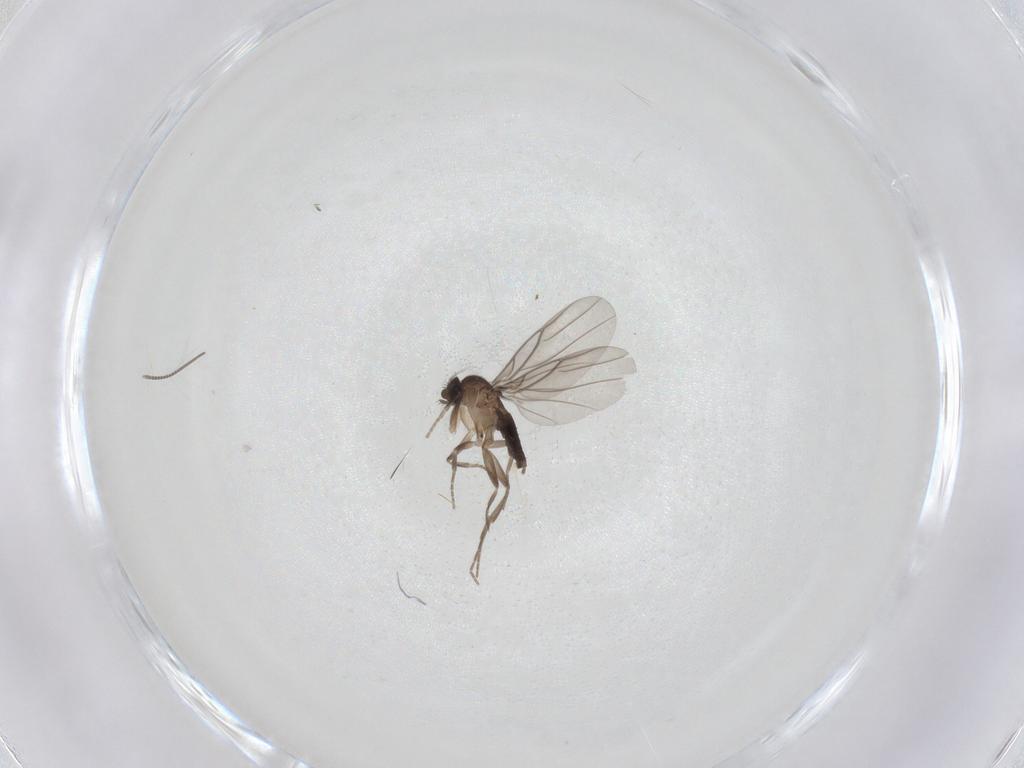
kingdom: Animalia
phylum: Arthropoda
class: Insecta
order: Diptera
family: Phoridae
